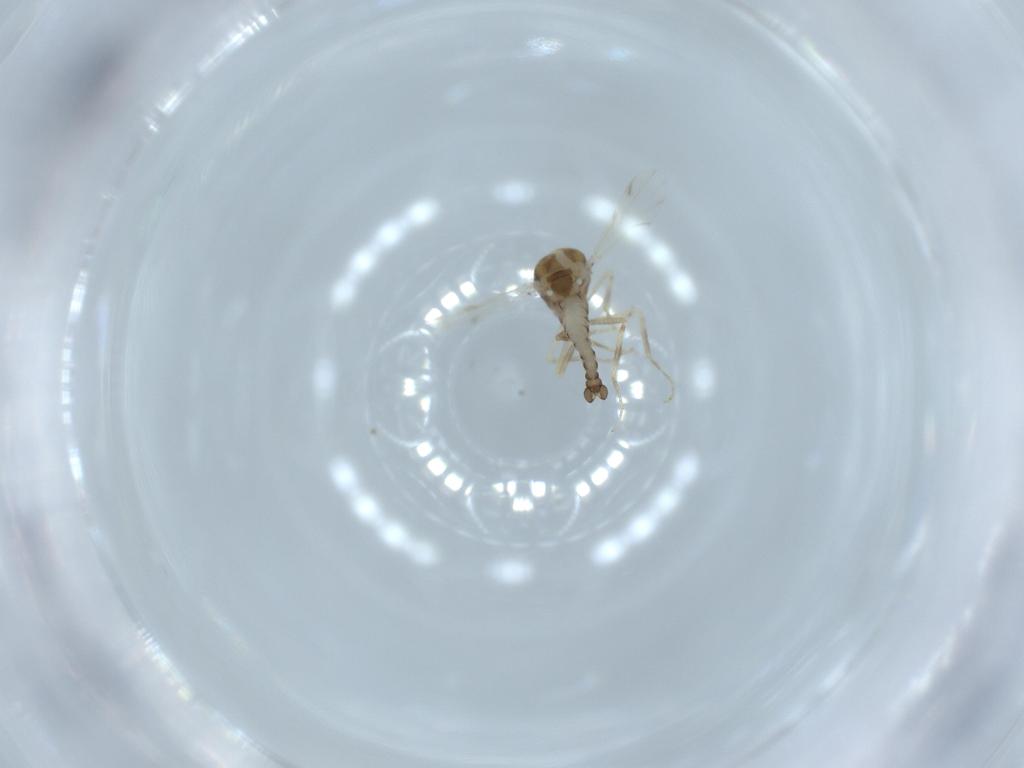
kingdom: Animalia
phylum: Arthropoda
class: Insecta
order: Diptera
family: Ceratopogonidae
